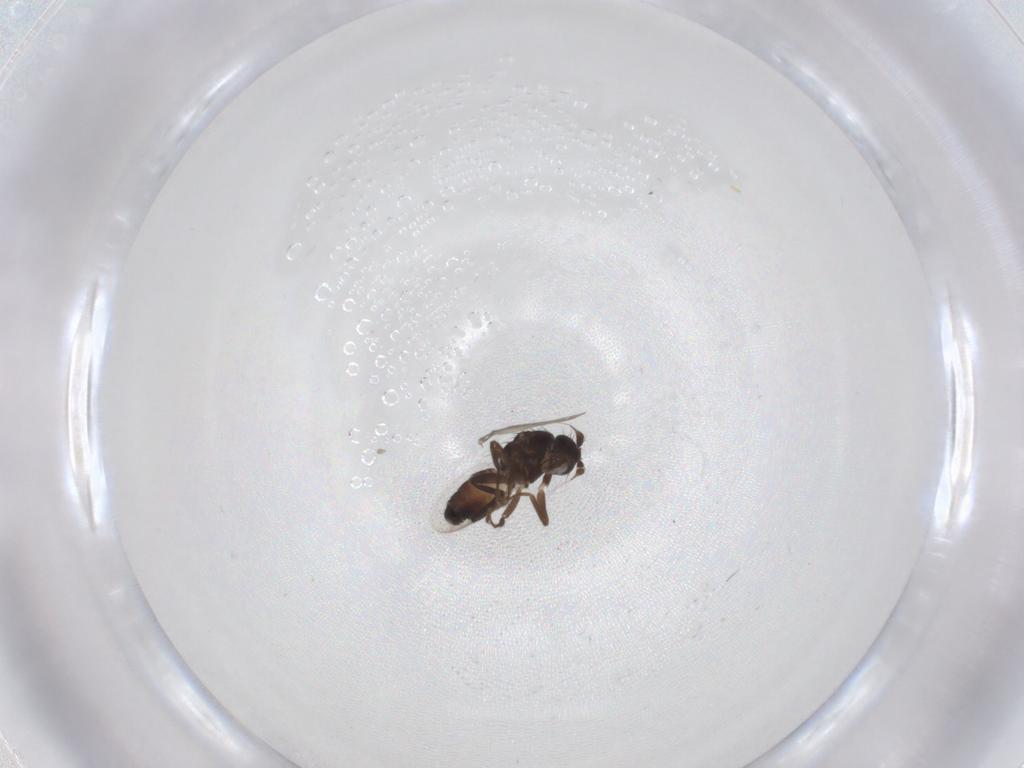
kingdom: Animalia
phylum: Arthropoda
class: Insecta
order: Diptera
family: Sphaeroceridae
